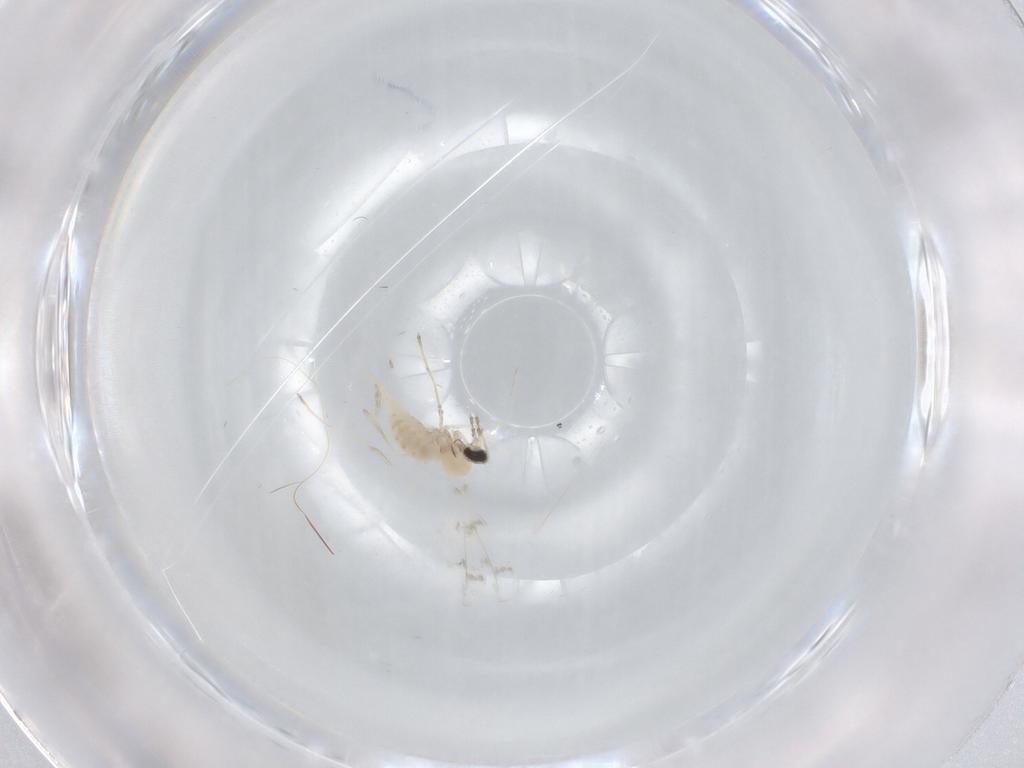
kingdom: Animalia
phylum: Arthropoda
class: Insecta
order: Diptera
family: Cecidomyiidae
